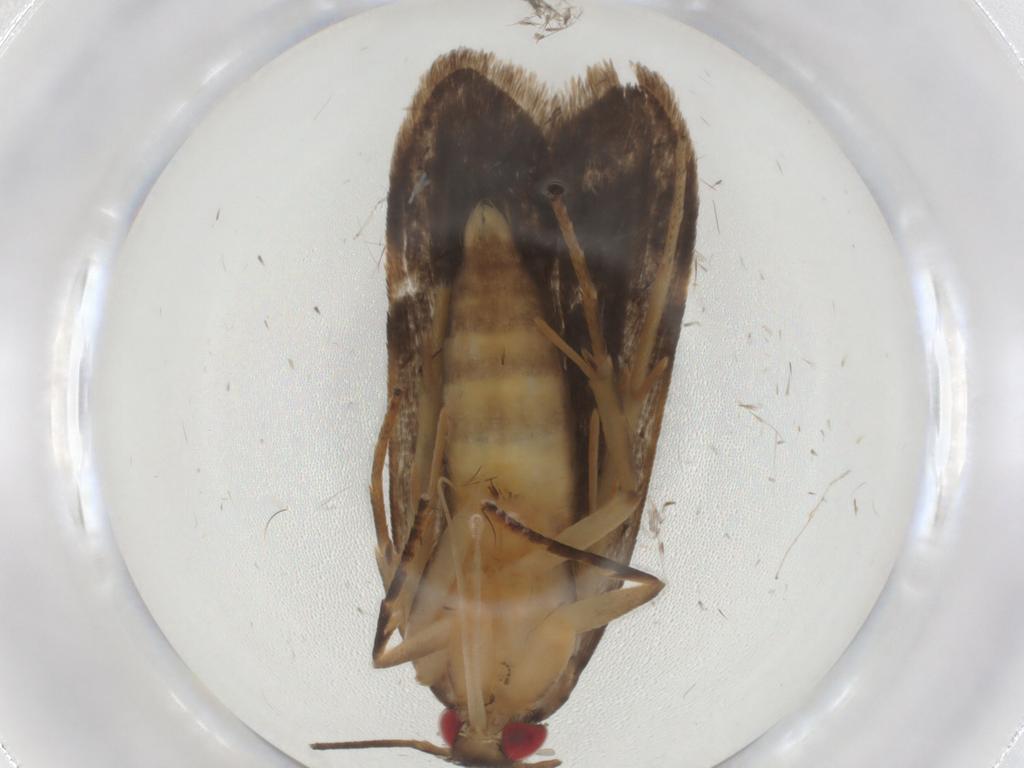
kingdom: Animalia
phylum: Arthropoda
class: Insecta
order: Lepidoptera
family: Gelechiidae
